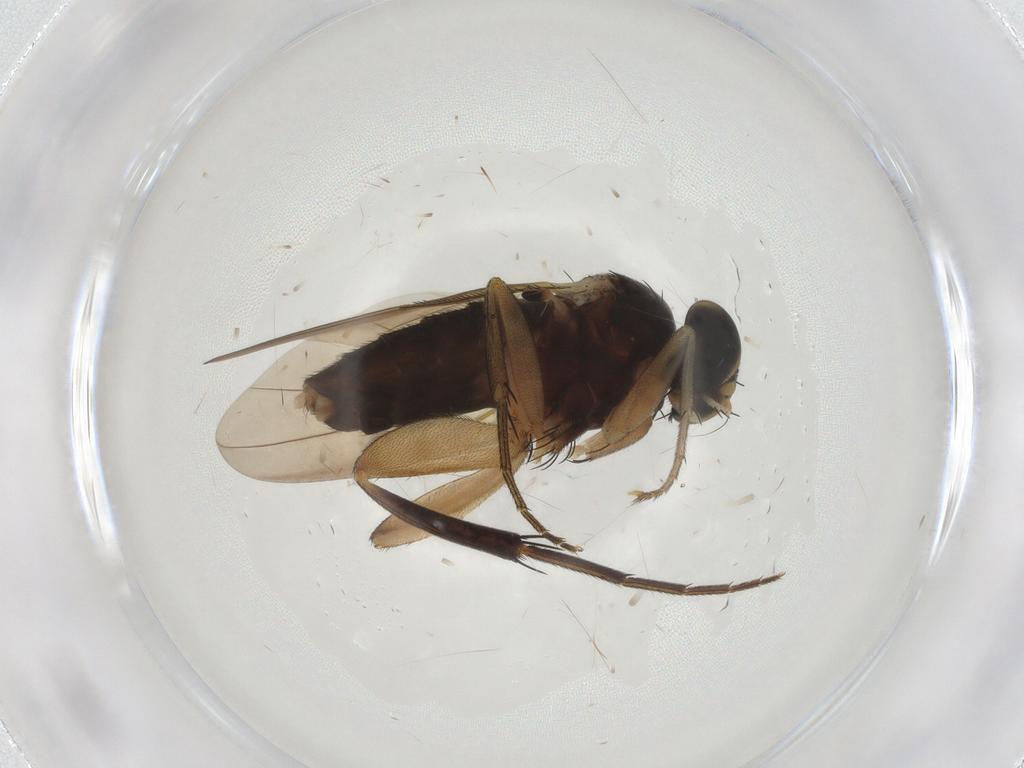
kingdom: Animalia
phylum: Arthropoda
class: Insecta
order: Diptera
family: Phoridae
